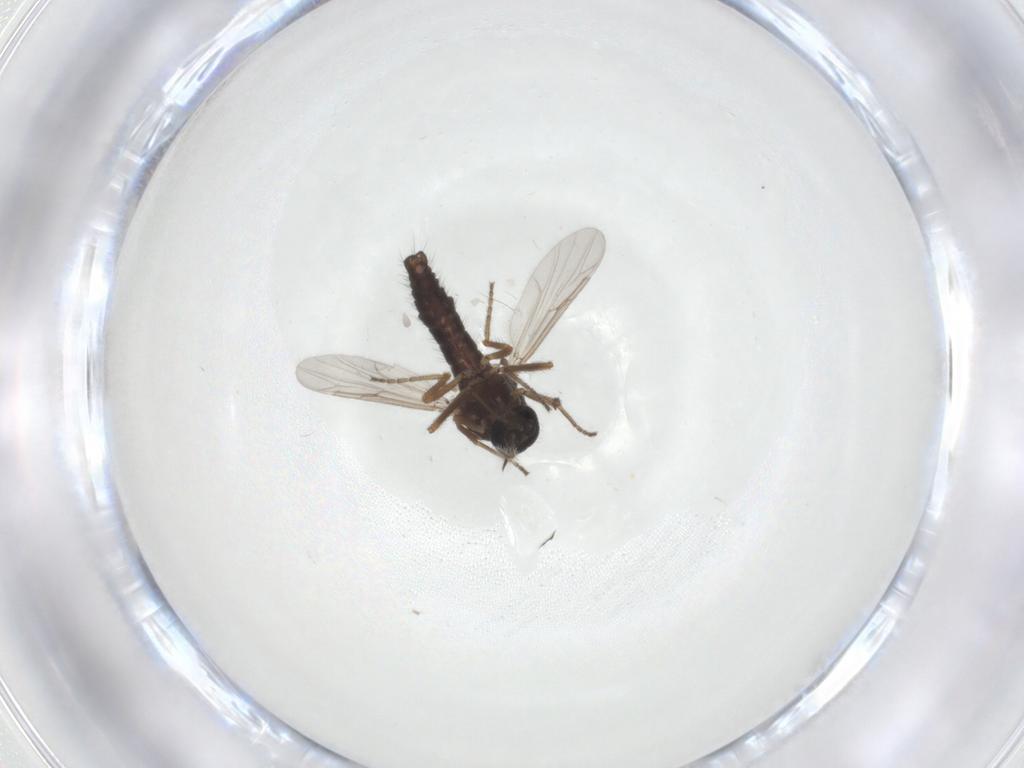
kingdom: Animalia
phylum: Arthropoda
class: Insecta
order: Diptera
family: Ceratopogonidae
